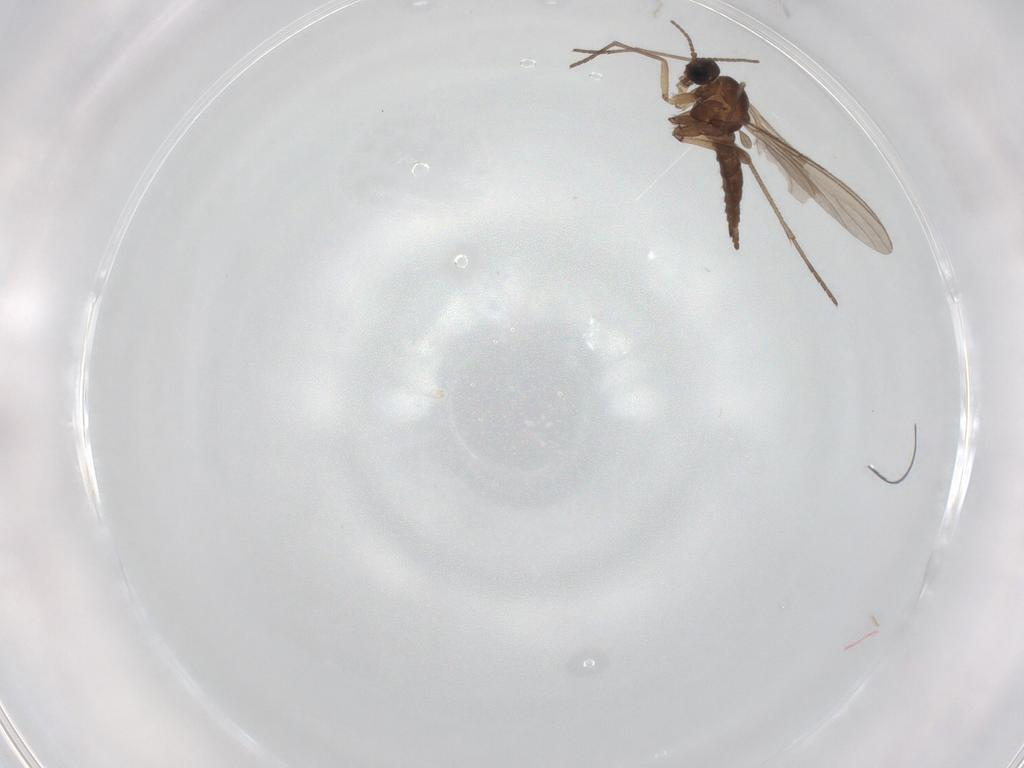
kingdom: Animalia
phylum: Arthropoda
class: Insecta
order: Diptera
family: Sciaridae
